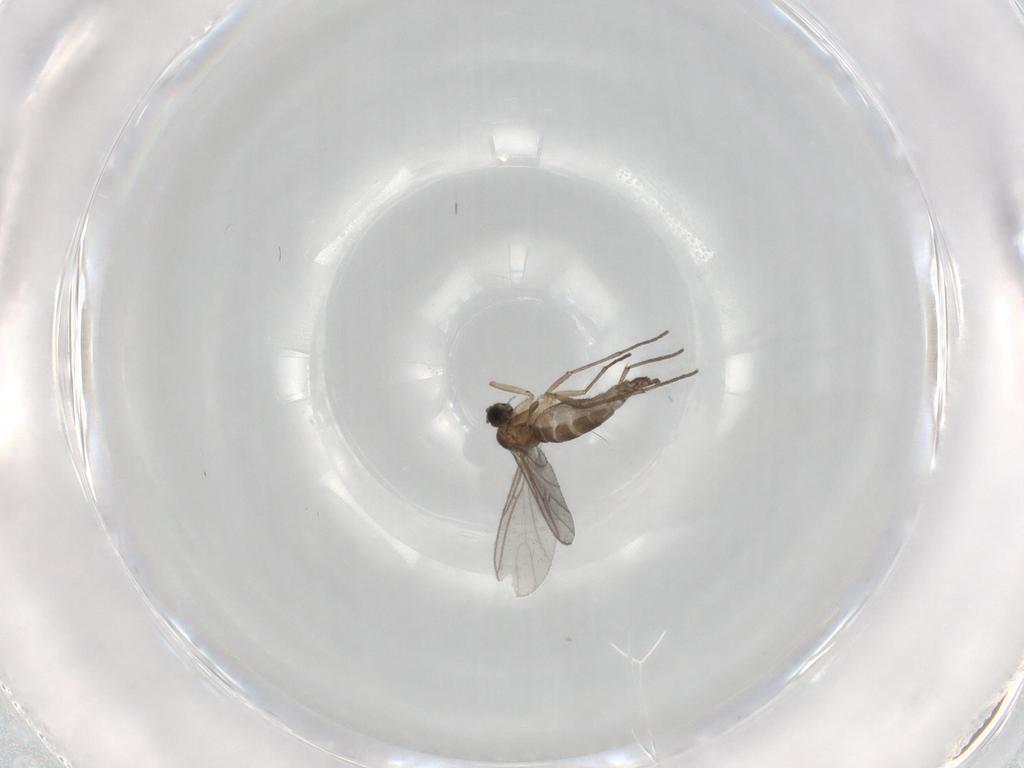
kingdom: Animalia
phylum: Arthropoda
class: Insecta
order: Diptera
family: Sciaridae
